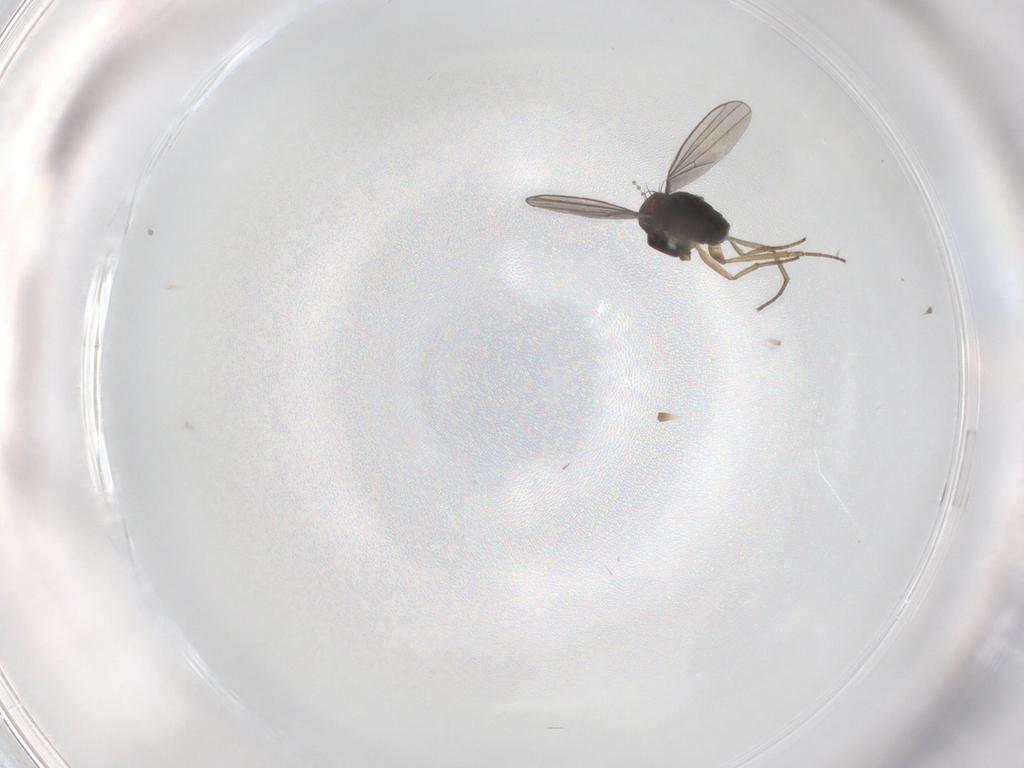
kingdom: Animalia
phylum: Arthropoda
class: Insecta
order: Diptera
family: Dolichopodidae
